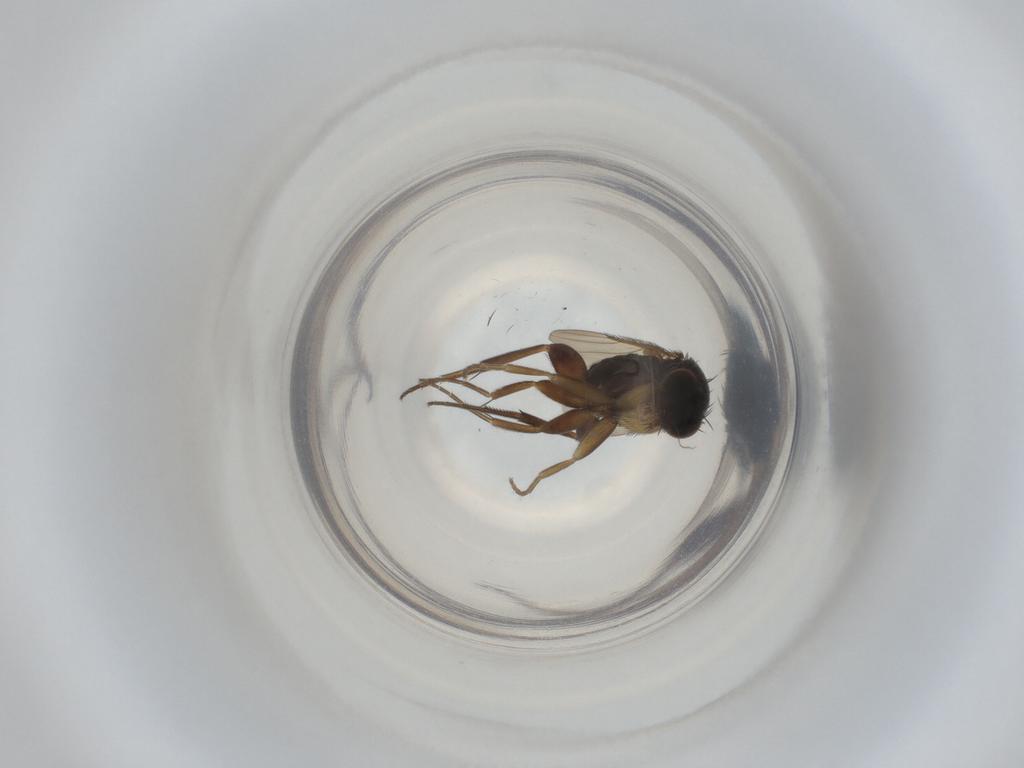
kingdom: Animalia
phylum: Arthropoda
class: Insecta
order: Diptera
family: Phoridae
